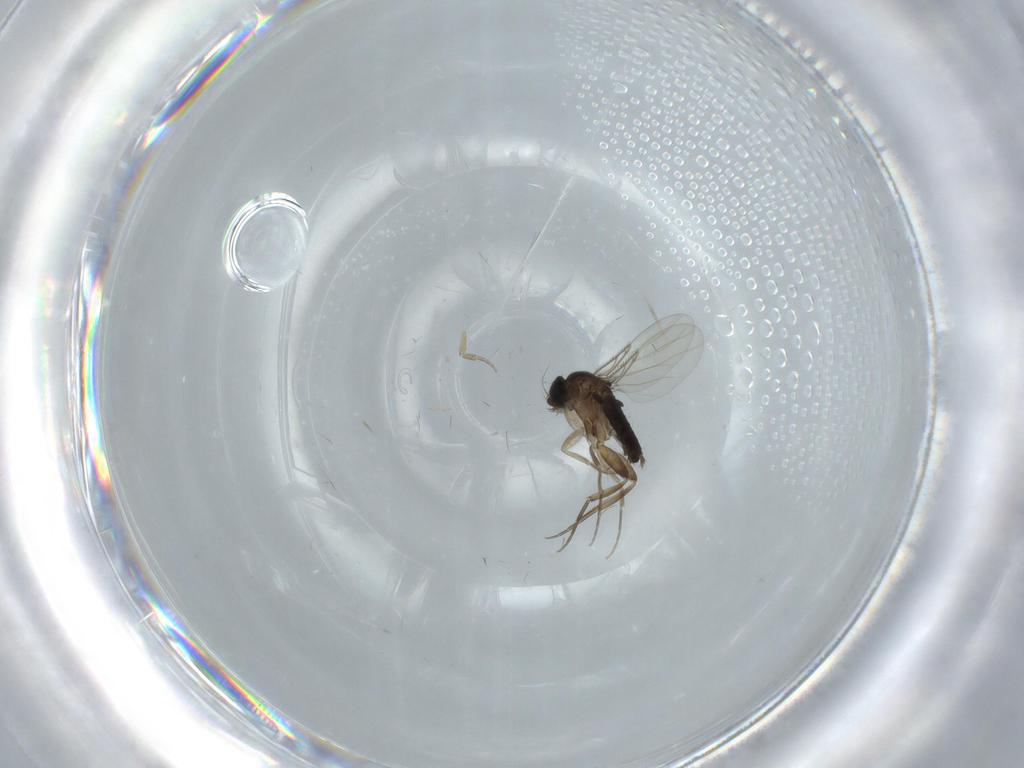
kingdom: Animalia
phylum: Arthropoda
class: Insecta
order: Diptera
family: Phoridae
